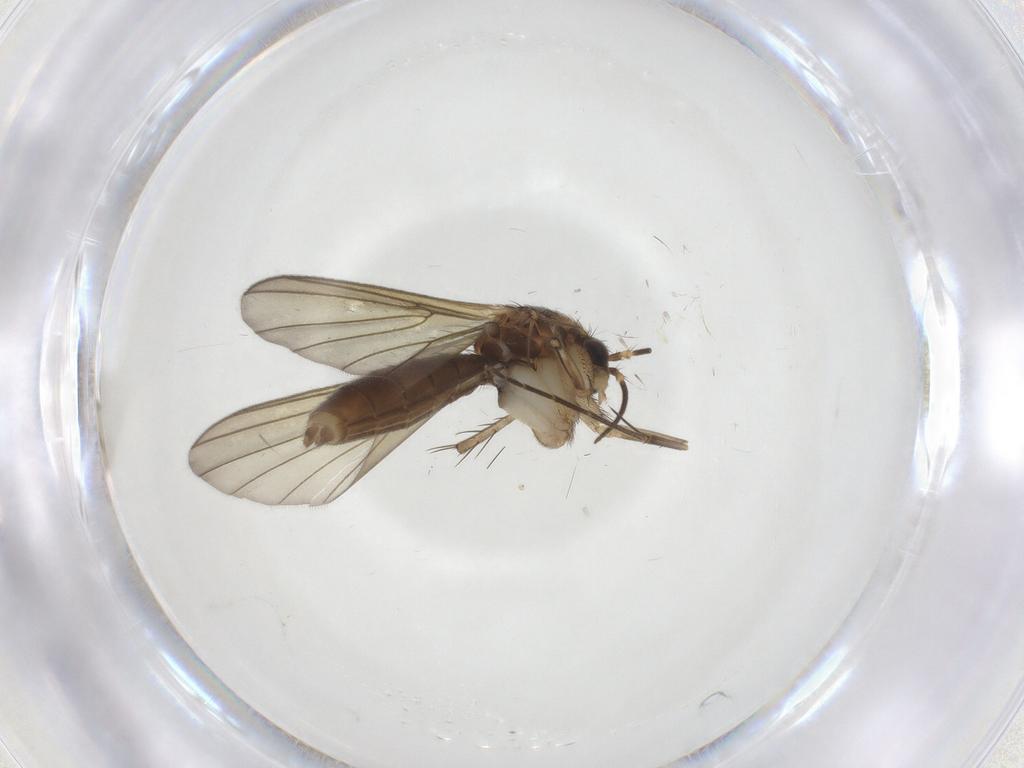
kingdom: Animalia
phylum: Arthropoda
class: Insecta
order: Diptera
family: Mycetophilidae
